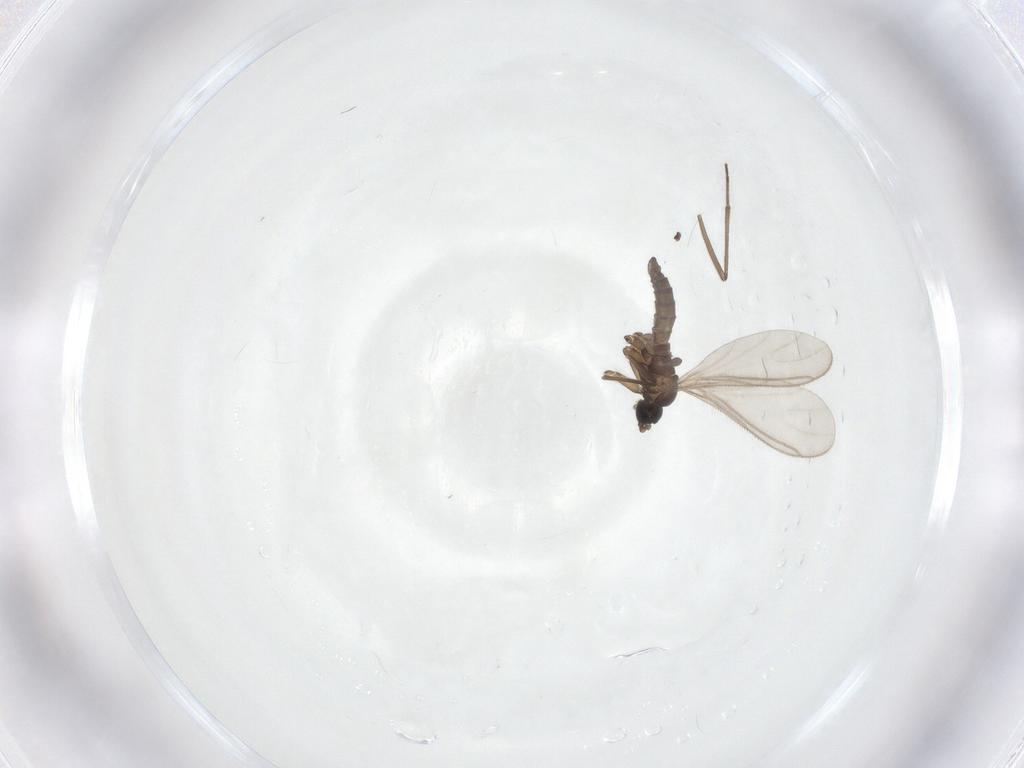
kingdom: Animalia
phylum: Arthropoda
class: Insecta
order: Diptera
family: Sciaridae
